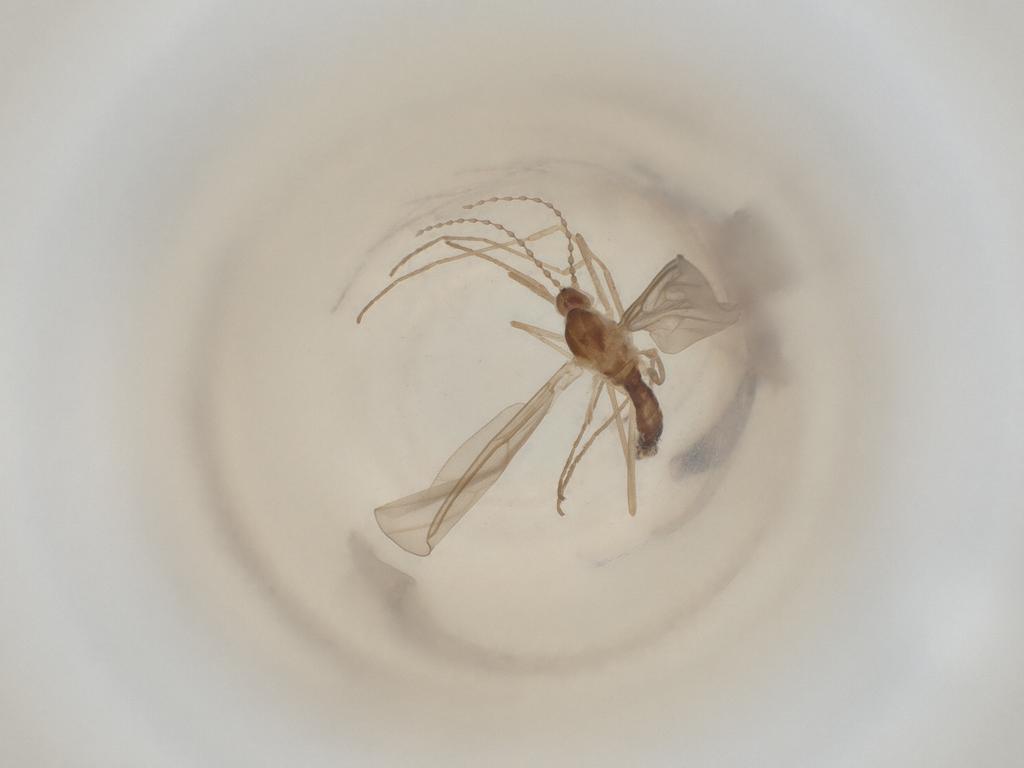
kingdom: Animalia
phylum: Arthropoda
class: Insecta
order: Diptera
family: Cecidomyiidae
